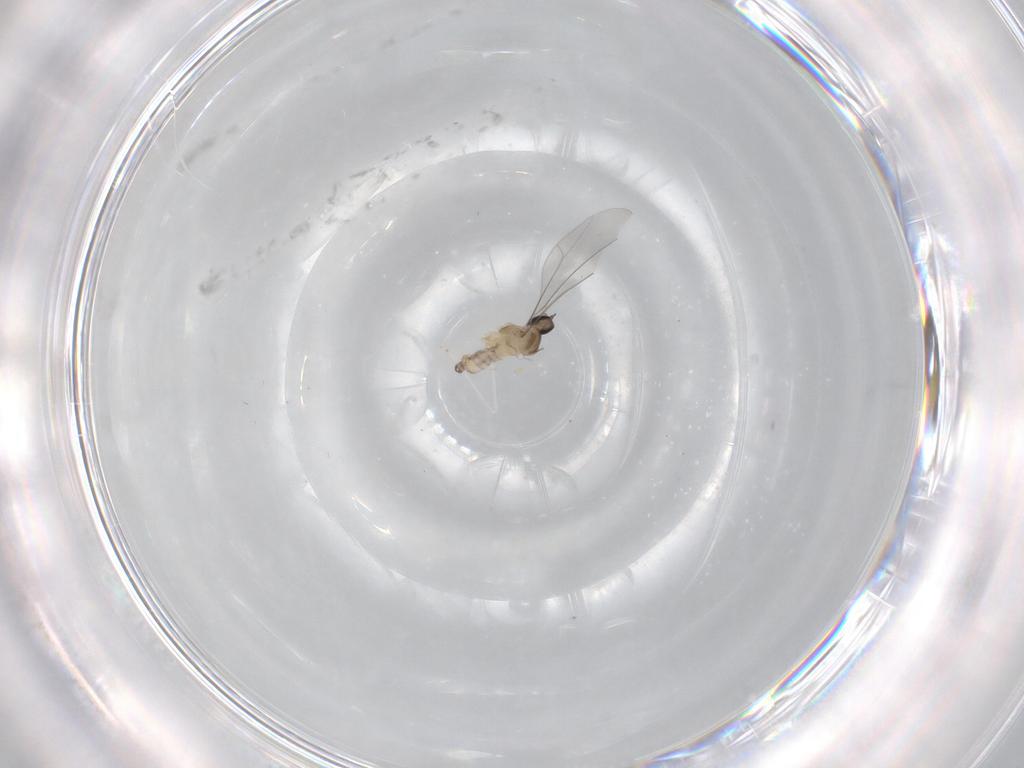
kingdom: Animalia
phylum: Arthropoda
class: Insecta
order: Diptera
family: Cecidomyiidae
